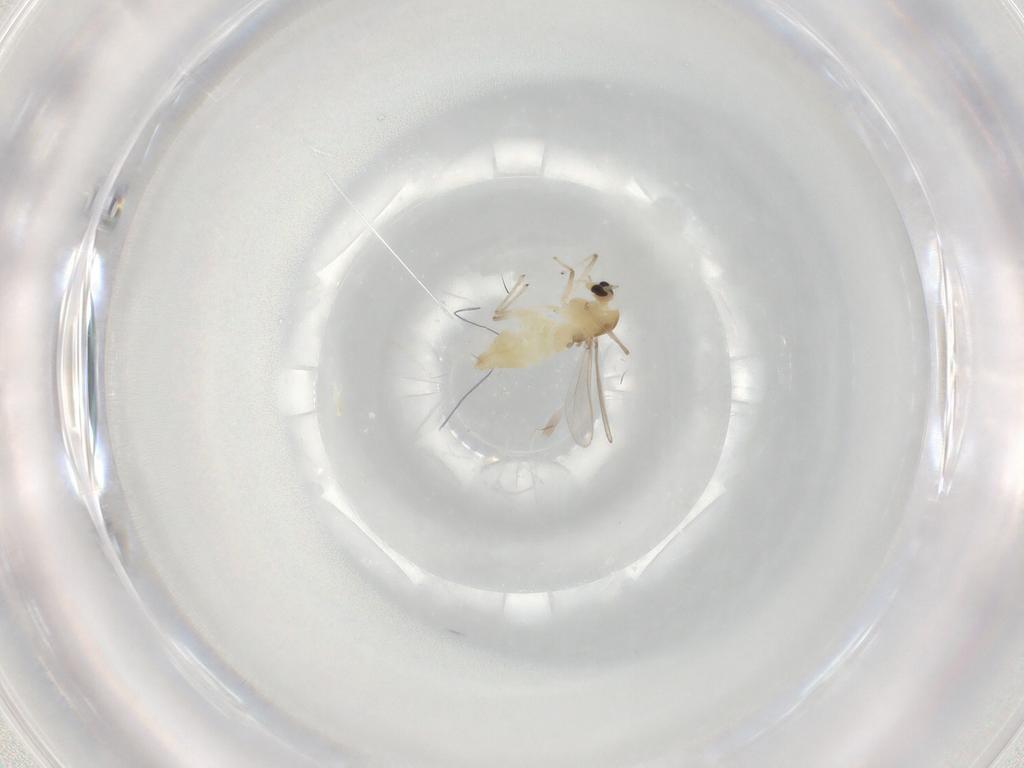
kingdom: Animalia
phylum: Arthropoda
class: Insecta
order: Diptera
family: Chironomidae
